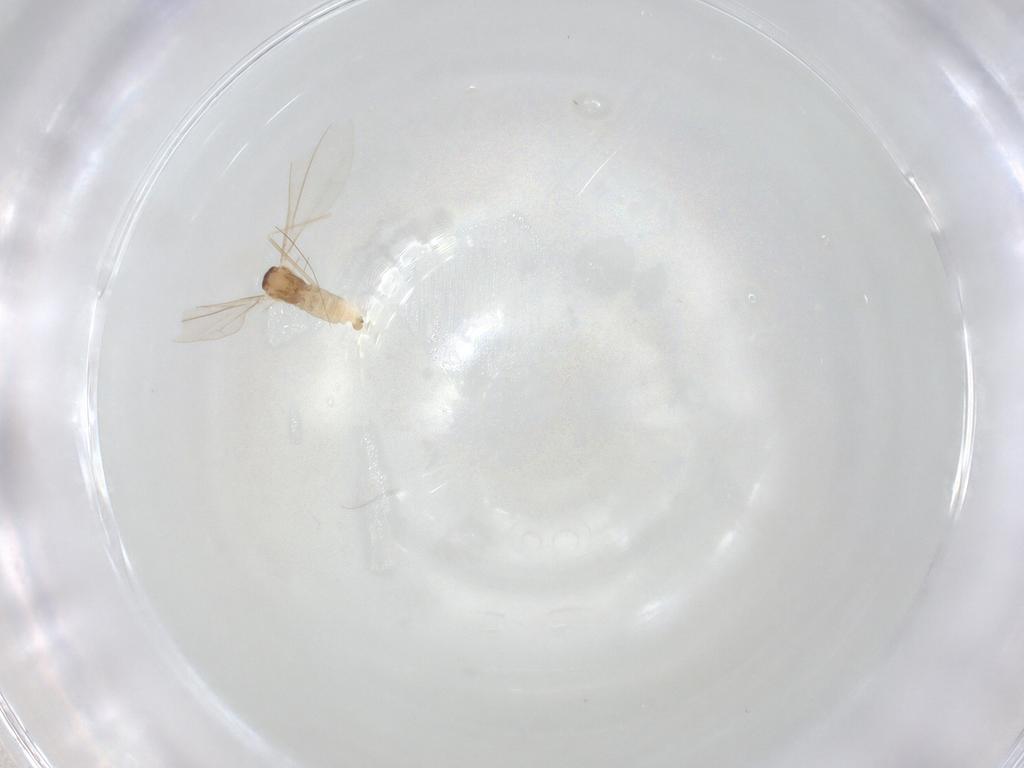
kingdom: Animalia
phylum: Arthropoda
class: Insecta
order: Diptera
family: Cecidomyiidae
